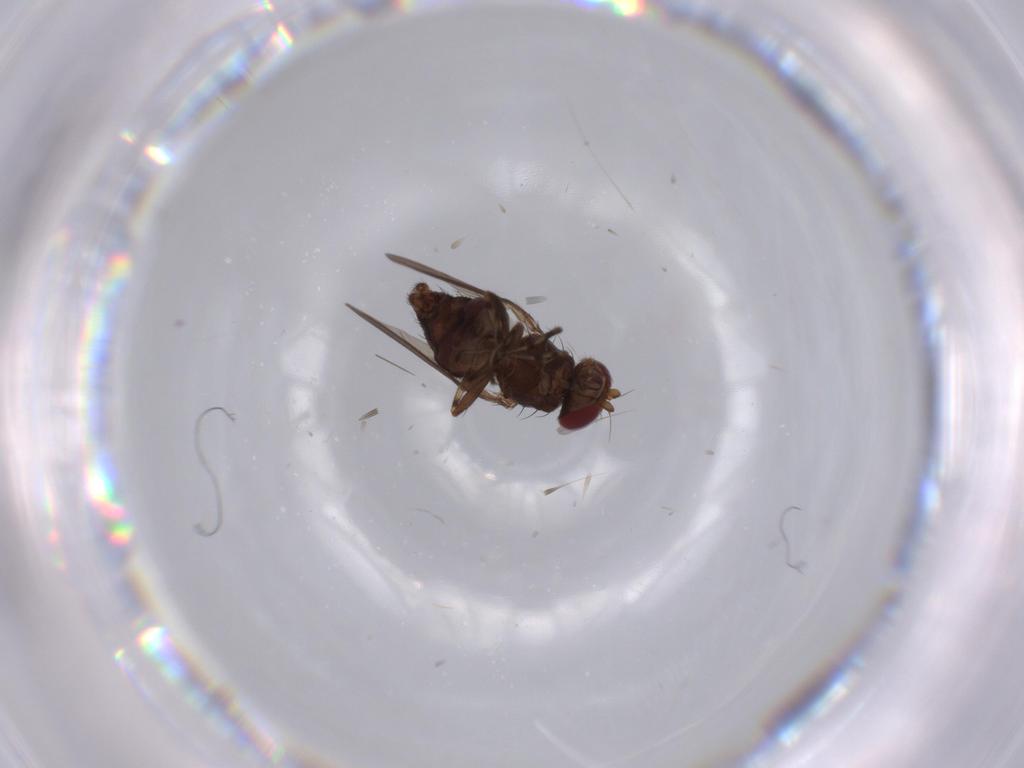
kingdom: Animalia
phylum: Arthropoda
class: Insecta
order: Diptera
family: Heleomyzidae
